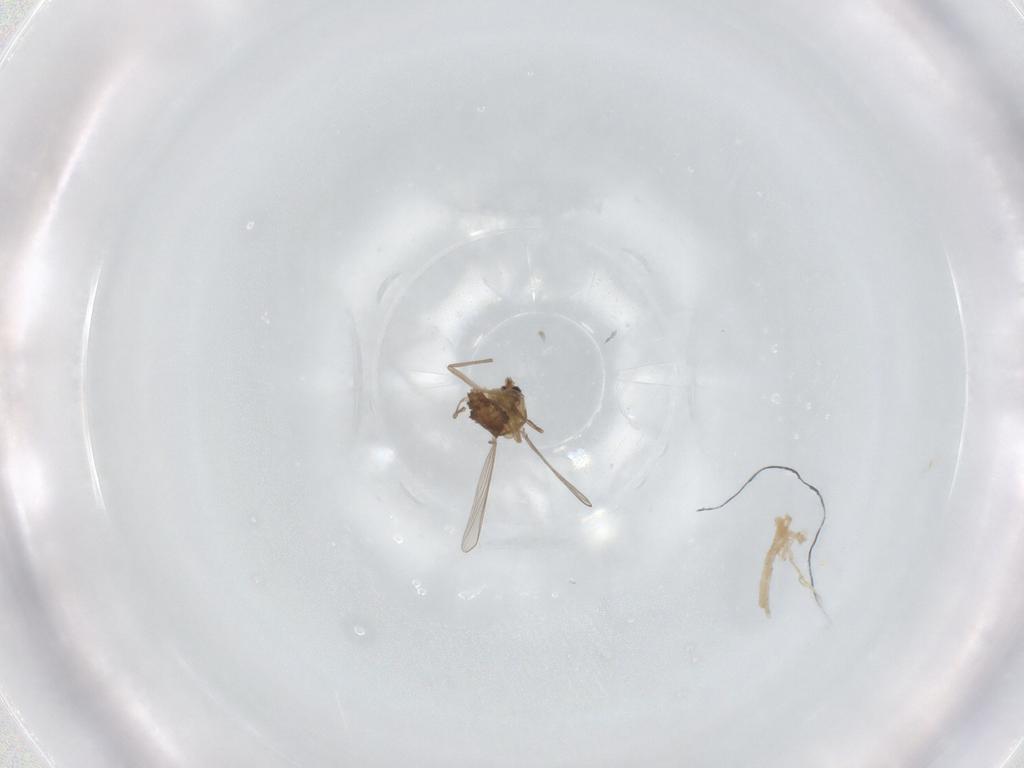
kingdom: Animalia
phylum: Arthropoda
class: Insecta
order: Diptera
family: Chironomidae
